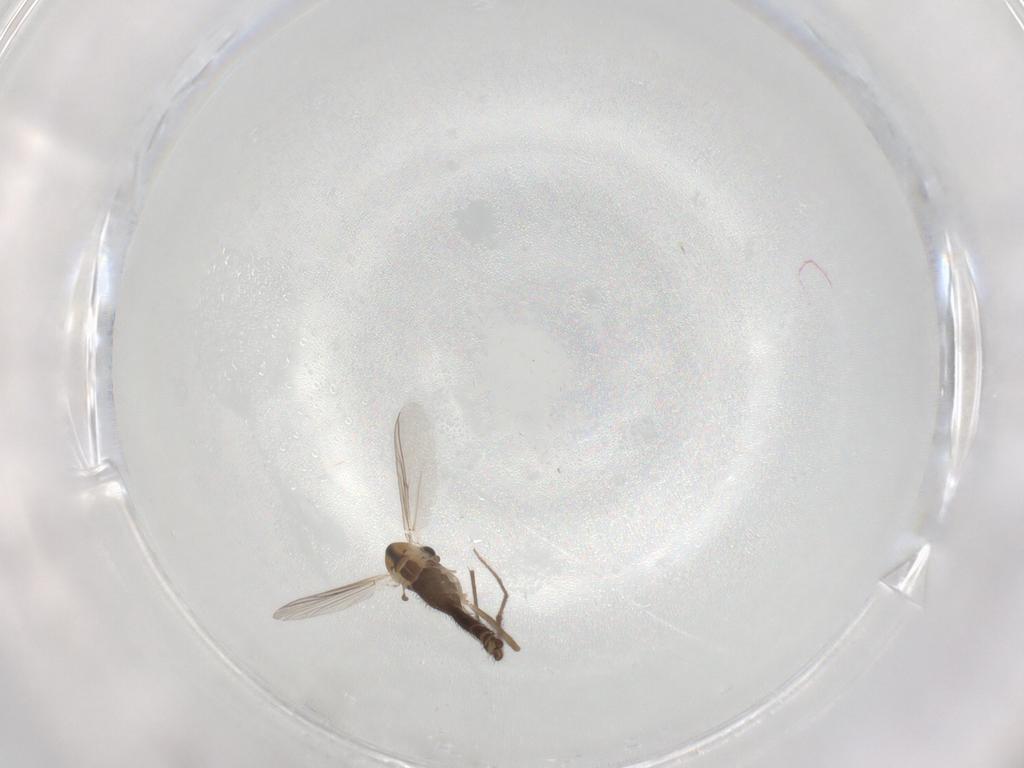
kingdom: Animalia
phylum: Arthropoda
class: Insecta
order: Diptera
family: Chironomidae
